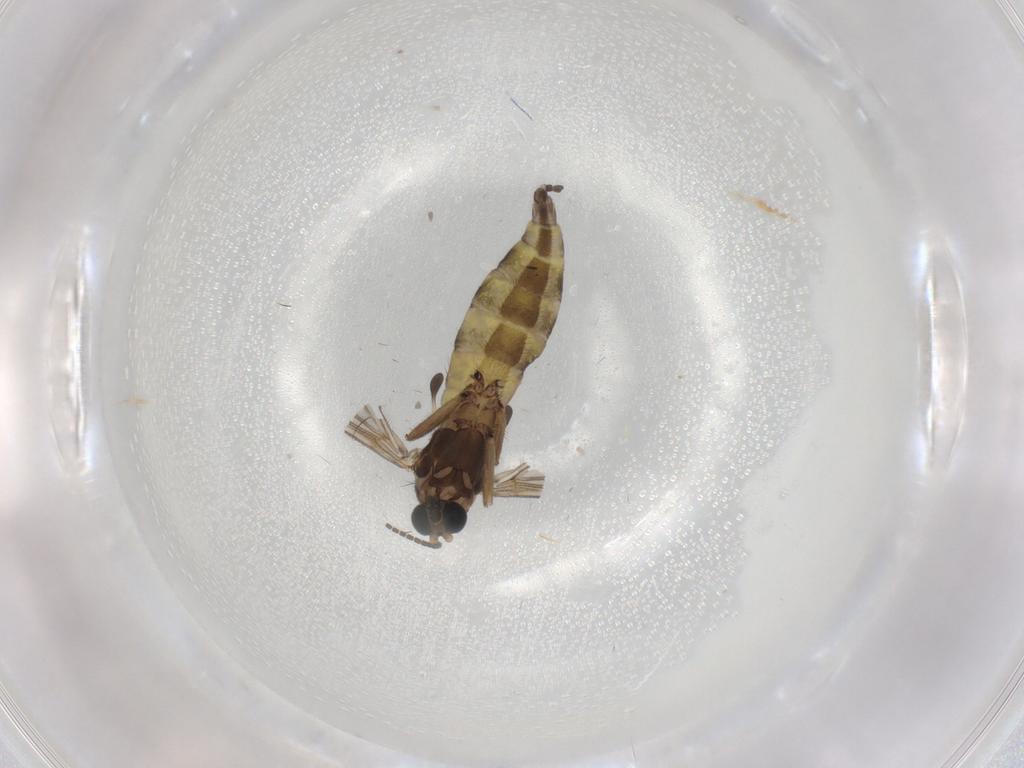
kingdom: Animalia
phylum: Arthropoda
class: Insecta
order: Diptera
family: Sciaridae
